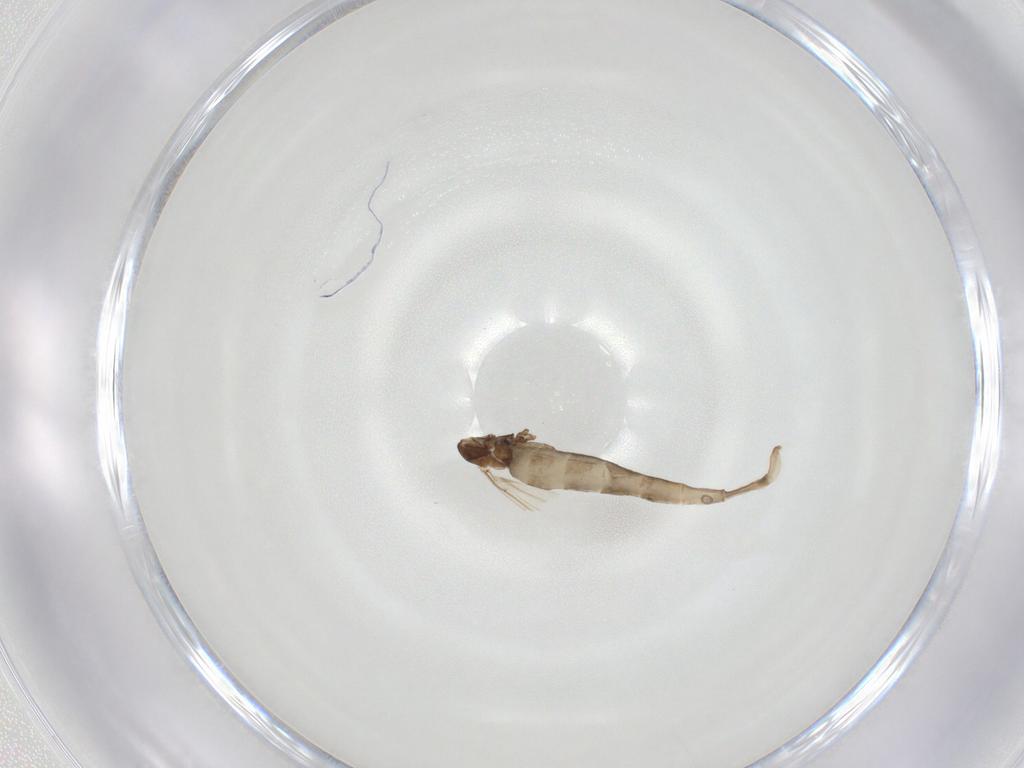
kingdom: Animalia
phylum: Arthropoda
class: Insecta
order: Diptera
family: Cecidomyiidae
